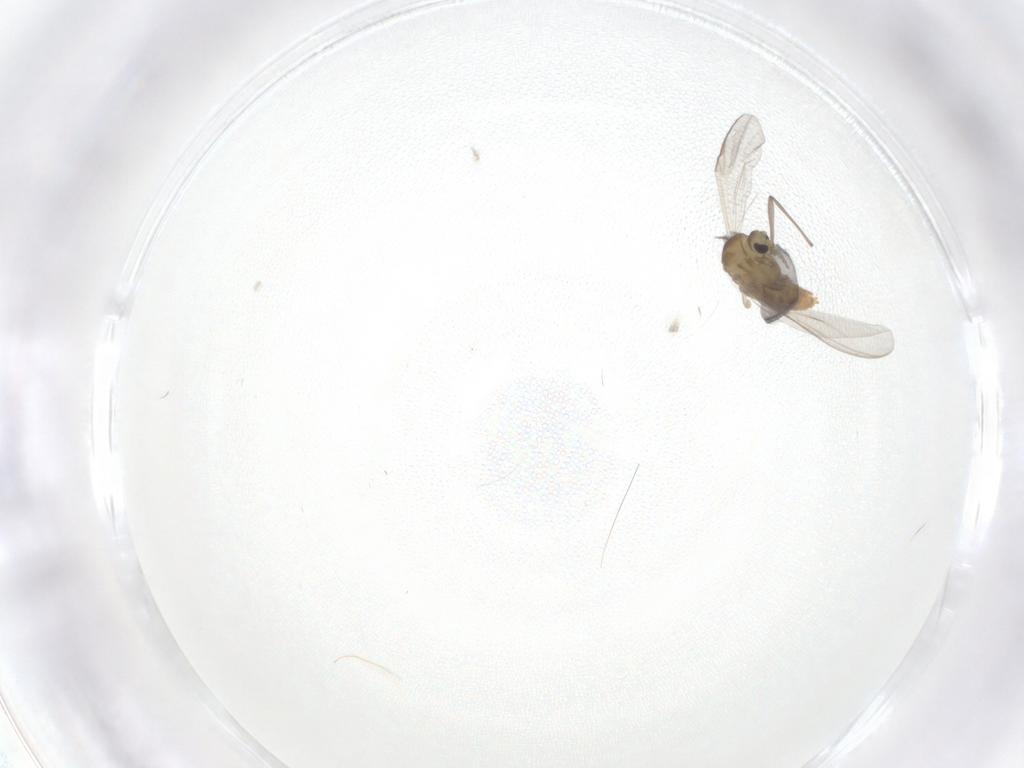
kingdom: Animalia
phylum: Arthropoda
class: Insecta
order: Diptera
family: Chironomidae
